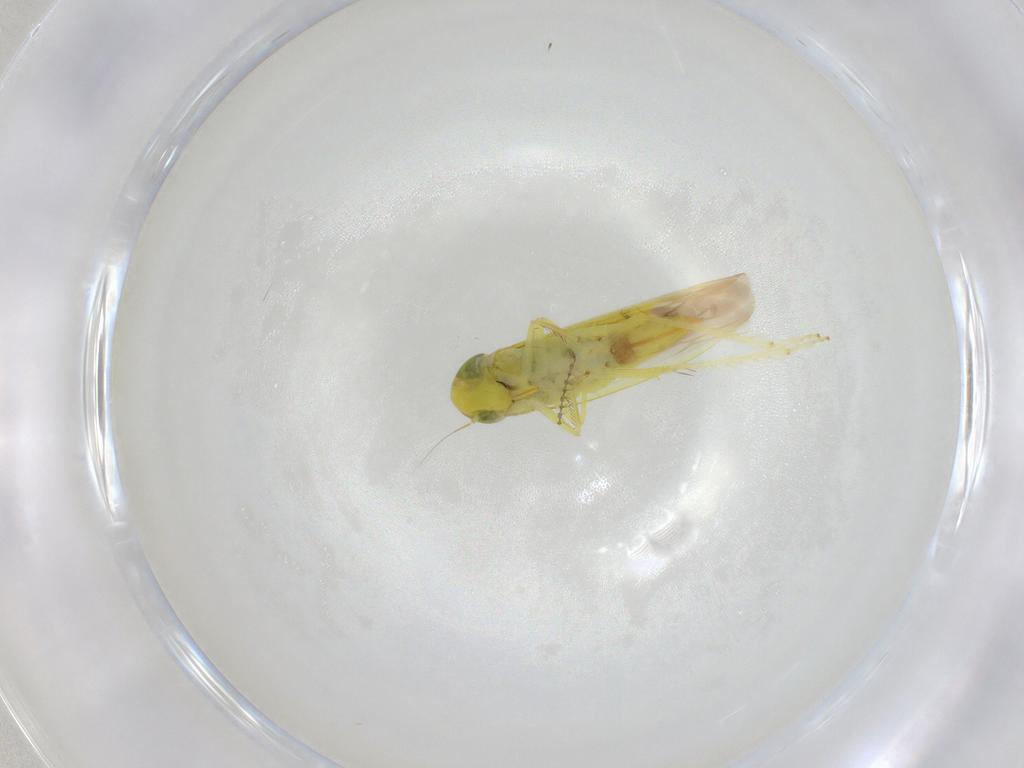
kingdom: Animalia
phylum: Arthropoda
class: Insecta
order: Hemiptera
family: Cicadellidae
